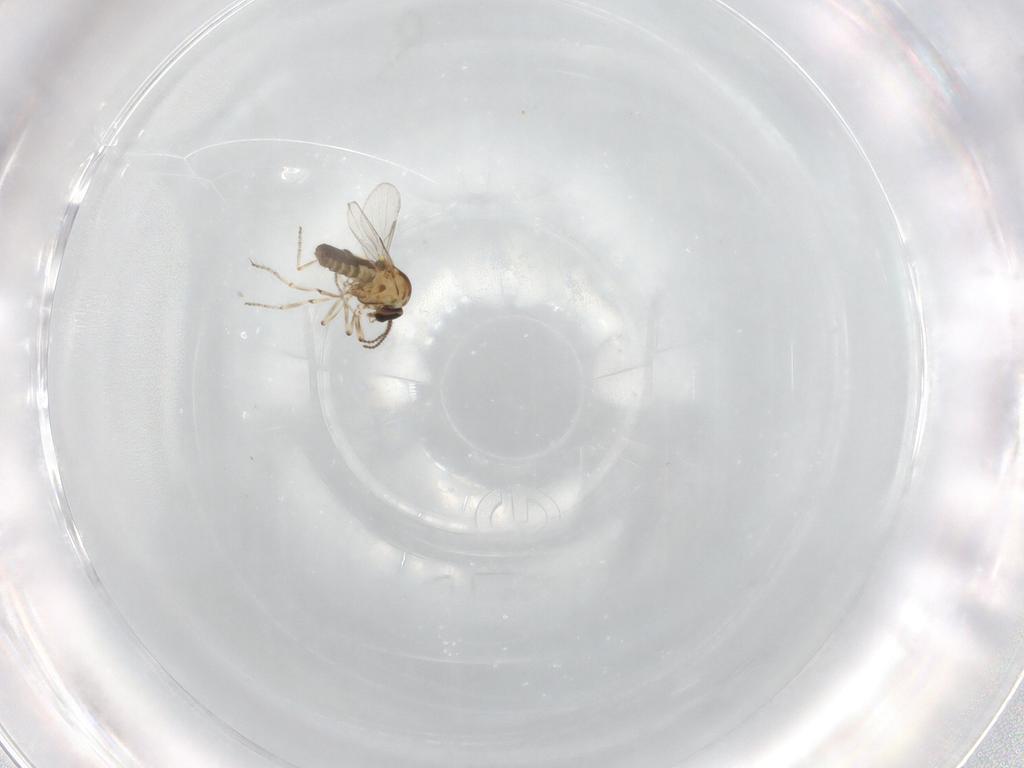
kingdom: Animalia
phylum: Arthropoda
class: Insecta
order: Diptera
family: Ceratopogonidae
